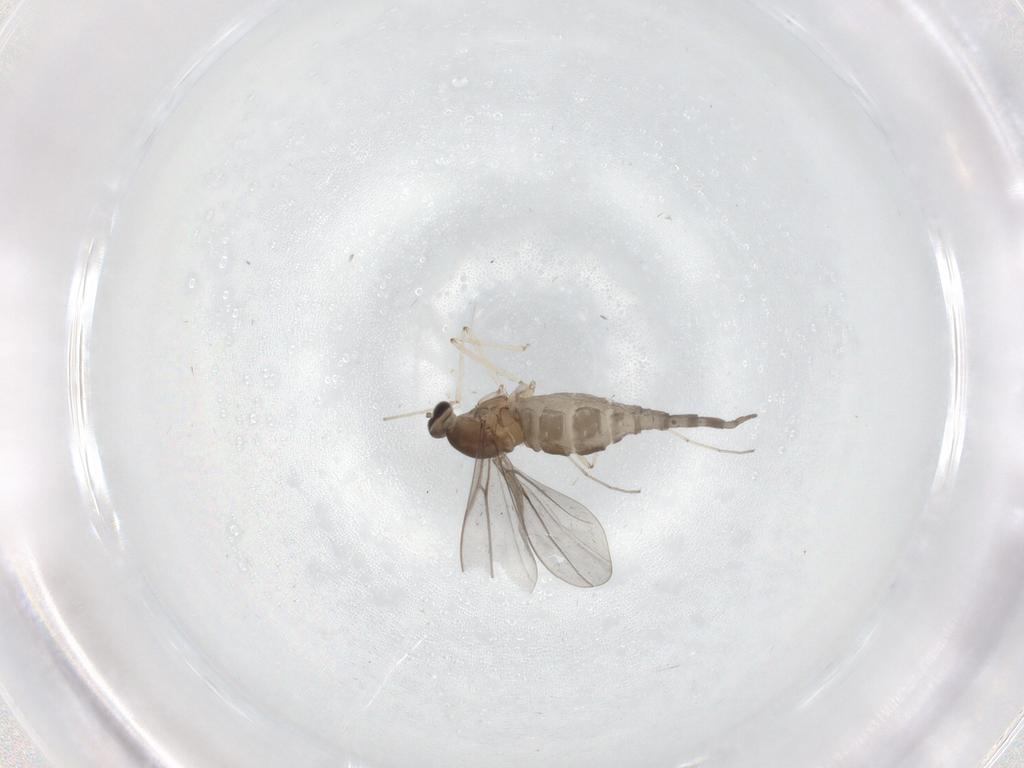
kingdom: Animalia
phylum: Arthropoda
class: Insecta
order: Diptera
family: Cecidomyiidae
